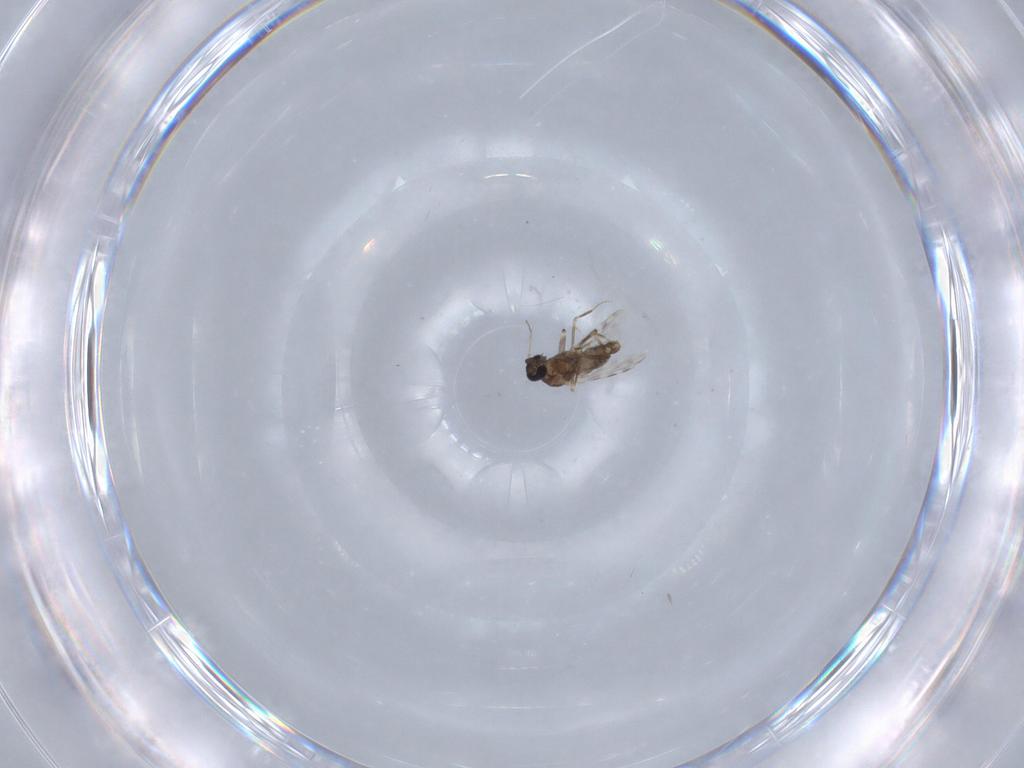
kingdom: Animalia
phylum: Arthropoda
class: Insecta
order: Diptera
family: Ceratopogonidae
